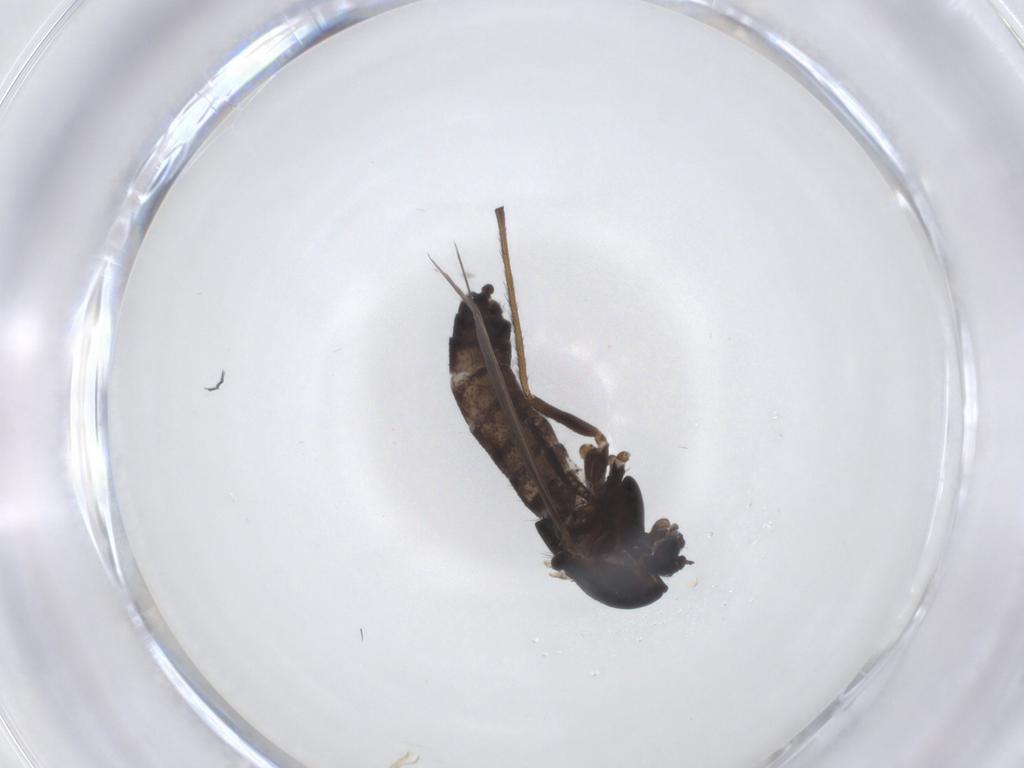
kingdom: Animalia
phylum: Arthropoda
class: Insecta
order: Diptera
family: Chironomidae
